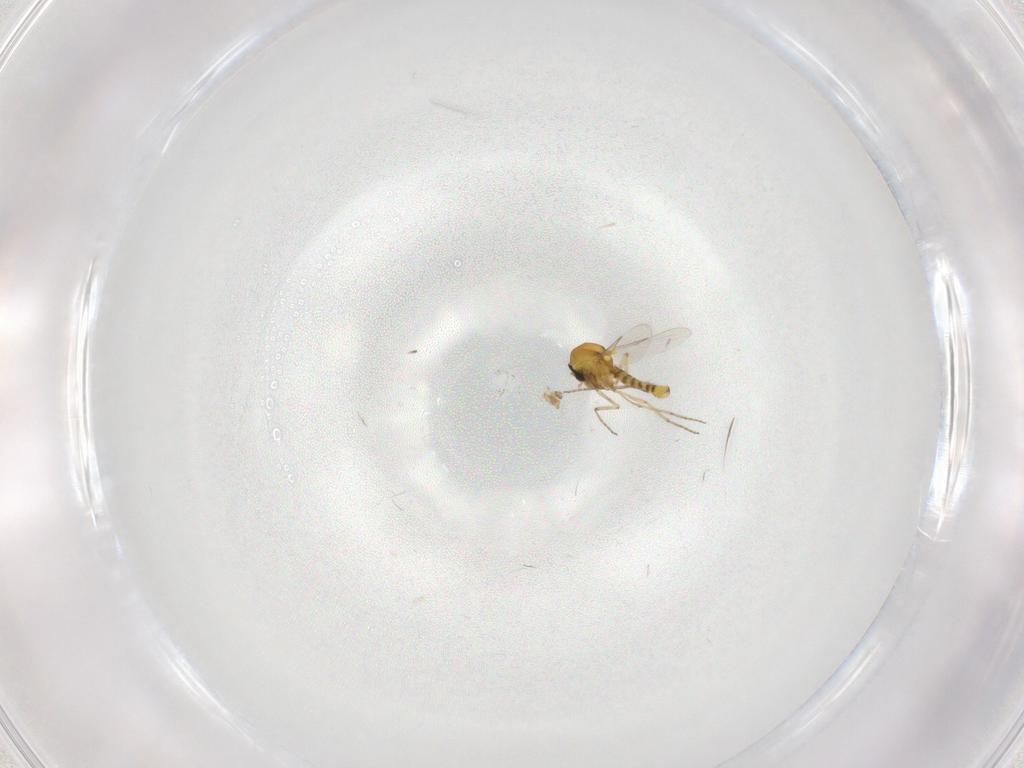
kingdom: Animalia
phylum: Arthropoda
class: Insecta
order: Diptera
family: Ceratopogonidae
